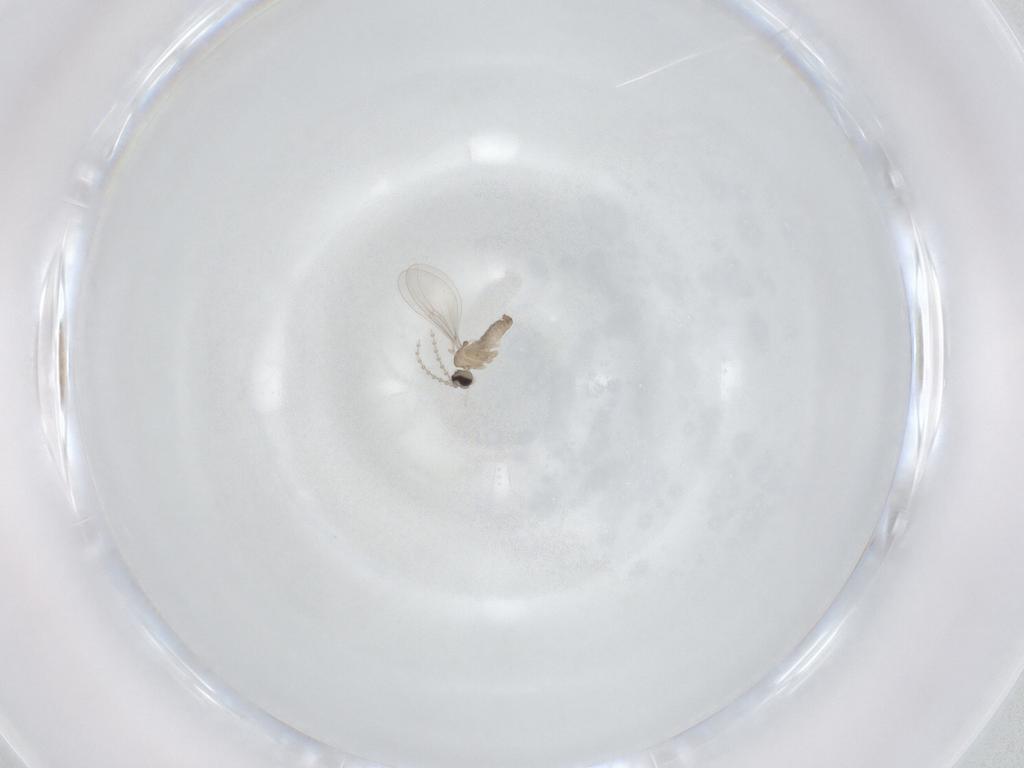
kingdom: Animalia
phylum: Arthropoda
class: Insecta
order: Diptera
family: Cecidomyiidae
